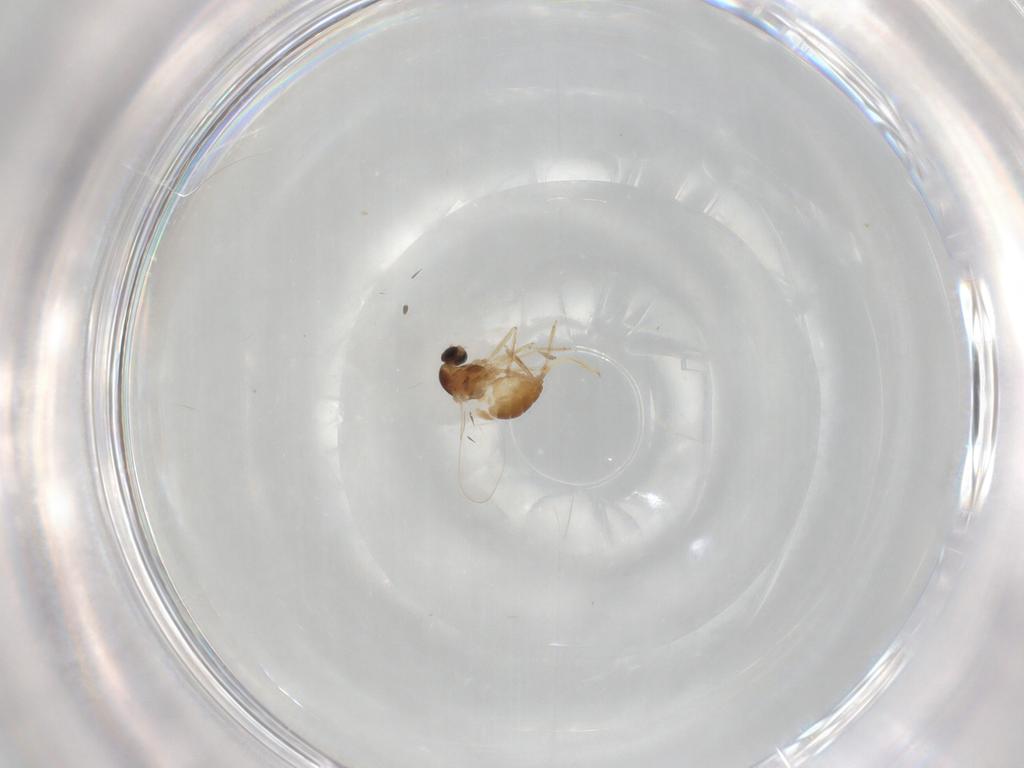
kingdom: Animalia
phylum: Arthropoda
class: Insecta
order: Diptera
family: Cecidomyiidae
